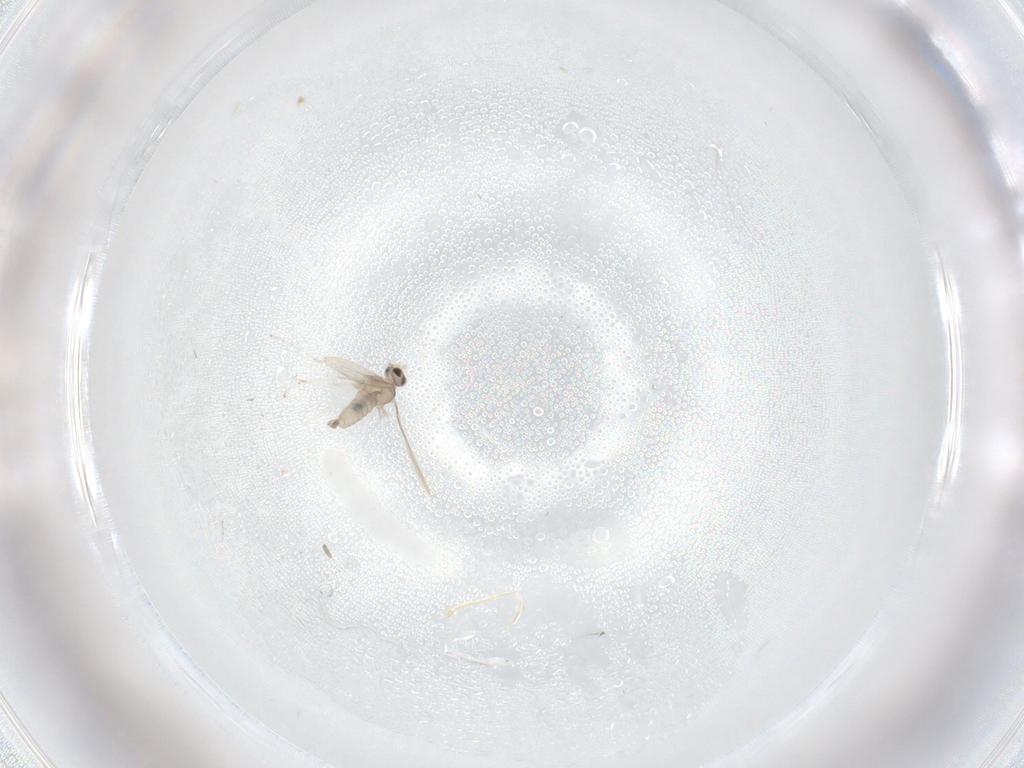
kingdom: Animalia
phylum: Arthropoda
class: Insecta
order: Diptera
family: Cecidomyiidae
